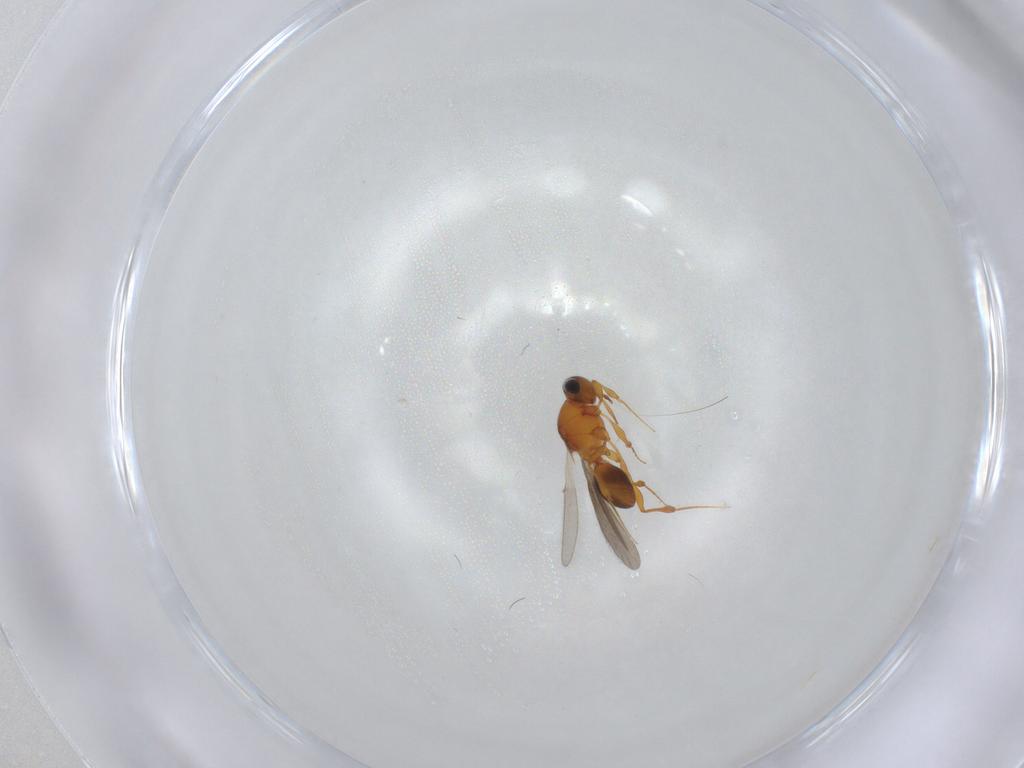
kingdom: Animalia
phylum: Arthropoda
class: Insecta
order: Hymenoptera
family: Platygastridae
